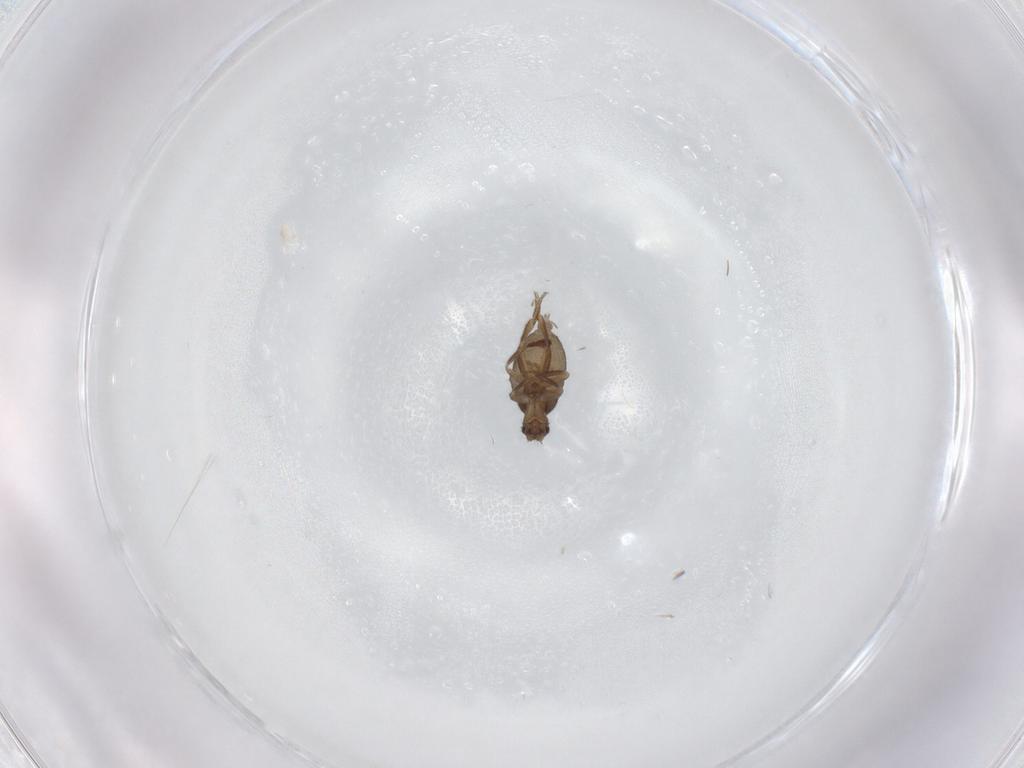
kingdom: Animalia
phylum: Arthropoda
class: Insecta
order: Diptera
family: Phoridae
